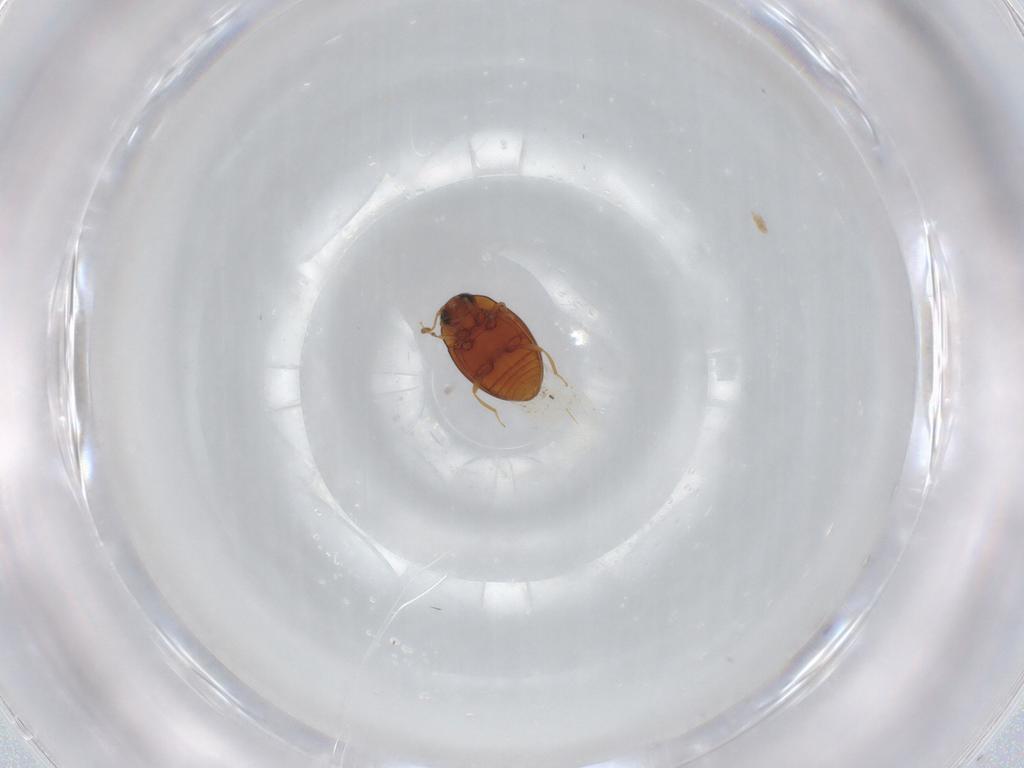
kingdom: Animalia
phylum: Arthropoda
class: Insecta
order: Coleoptera
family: Cryptophagidae
